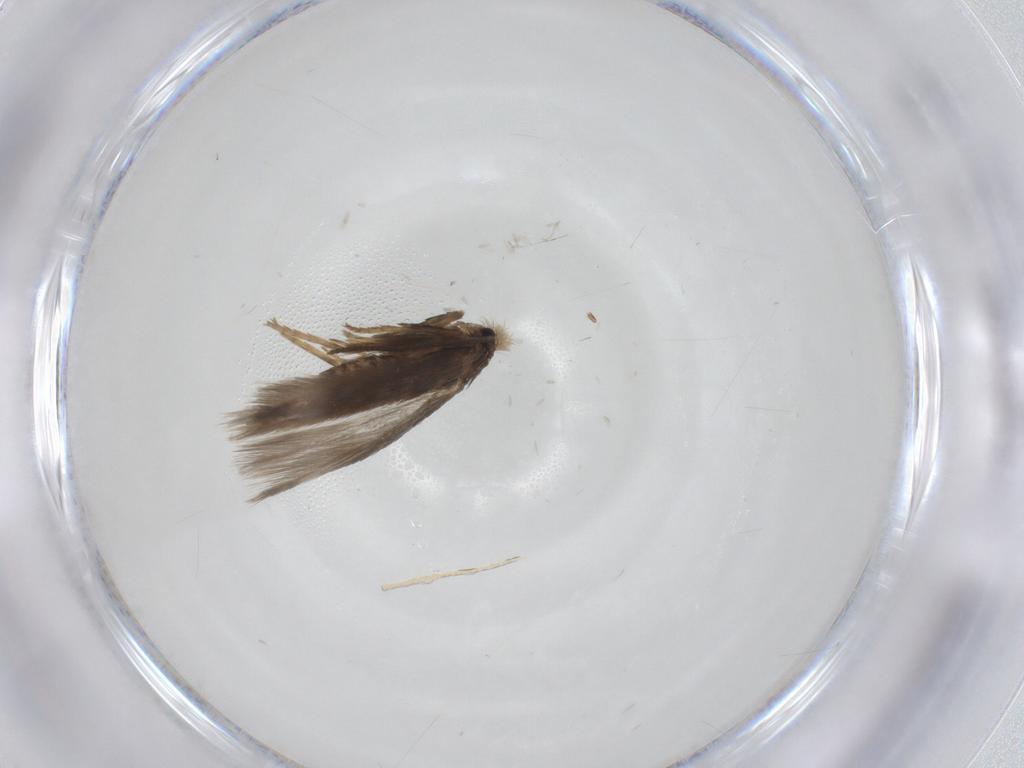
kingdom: Animalia
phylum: Arthropoda
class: Insecta
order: Lepidoptera
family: Nepticulidae
